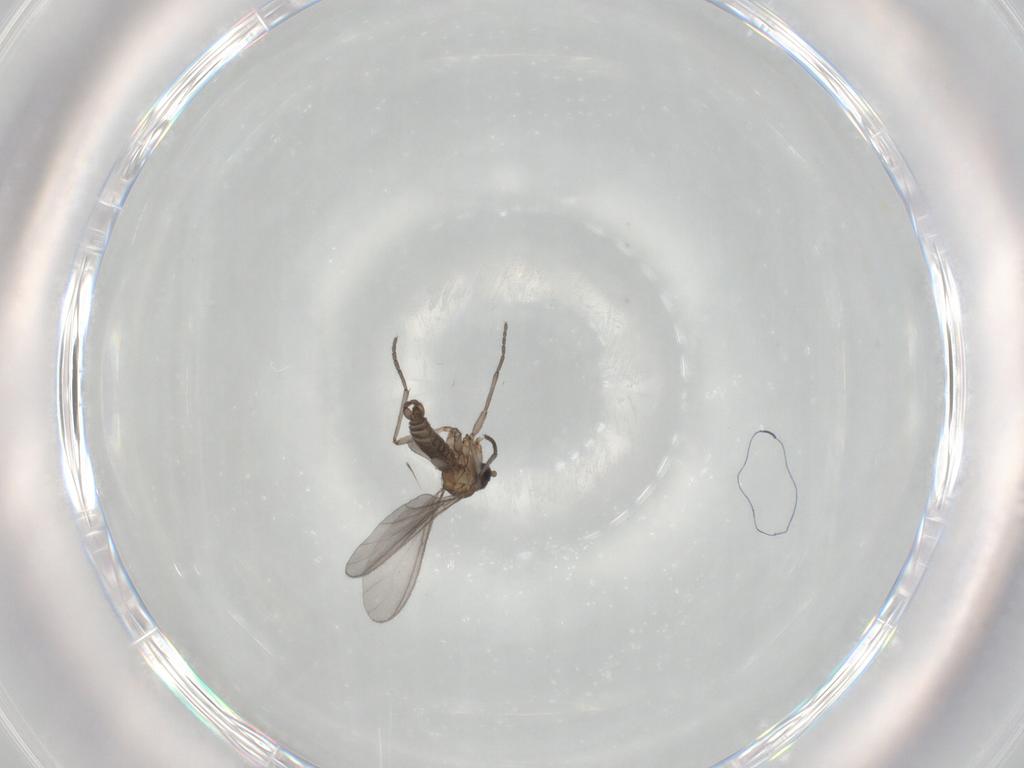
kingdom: Animalia
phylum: Arthropoda
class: Insecta
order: Diptera
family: Sciaridae
